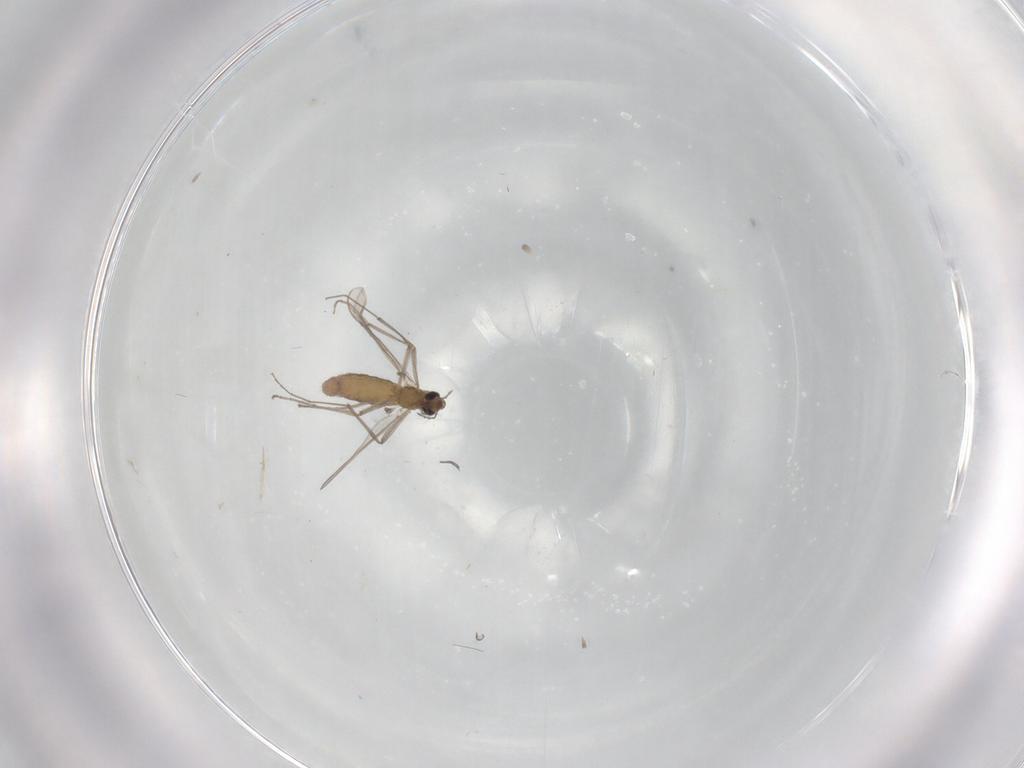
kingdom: Animalia
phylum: Arthropoda
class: Insecta
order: Diptera
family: Chironomidae
